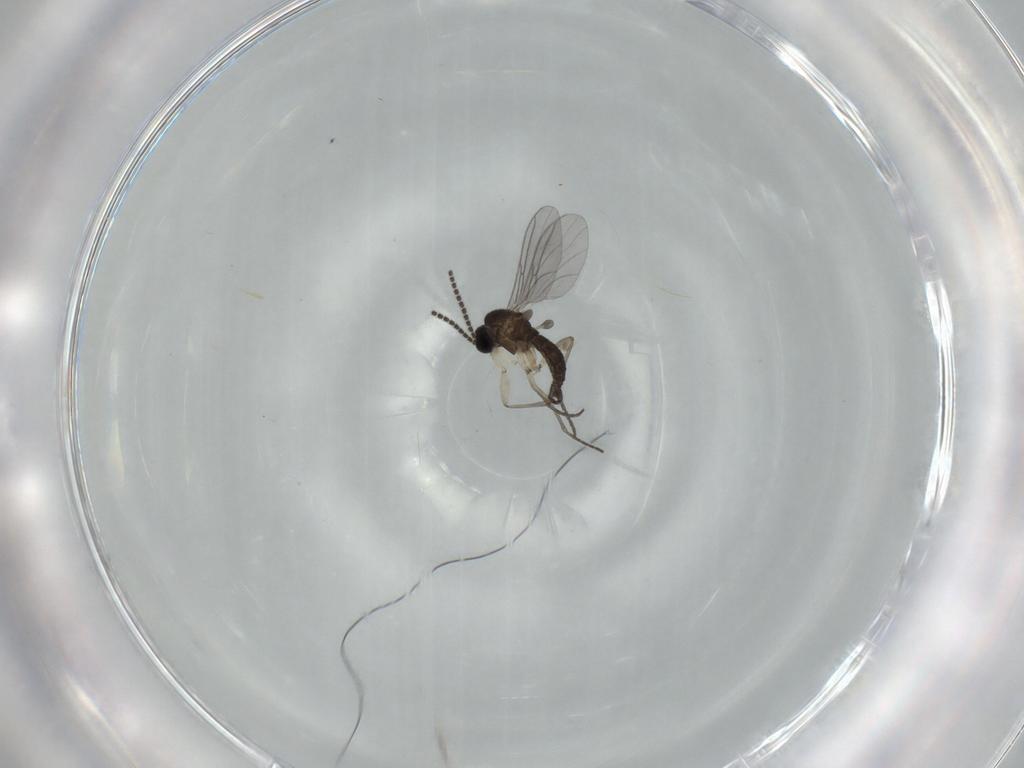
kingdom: Animalia
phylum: Arthropoda
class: Insecta
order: Diptera
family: Sciaridae
